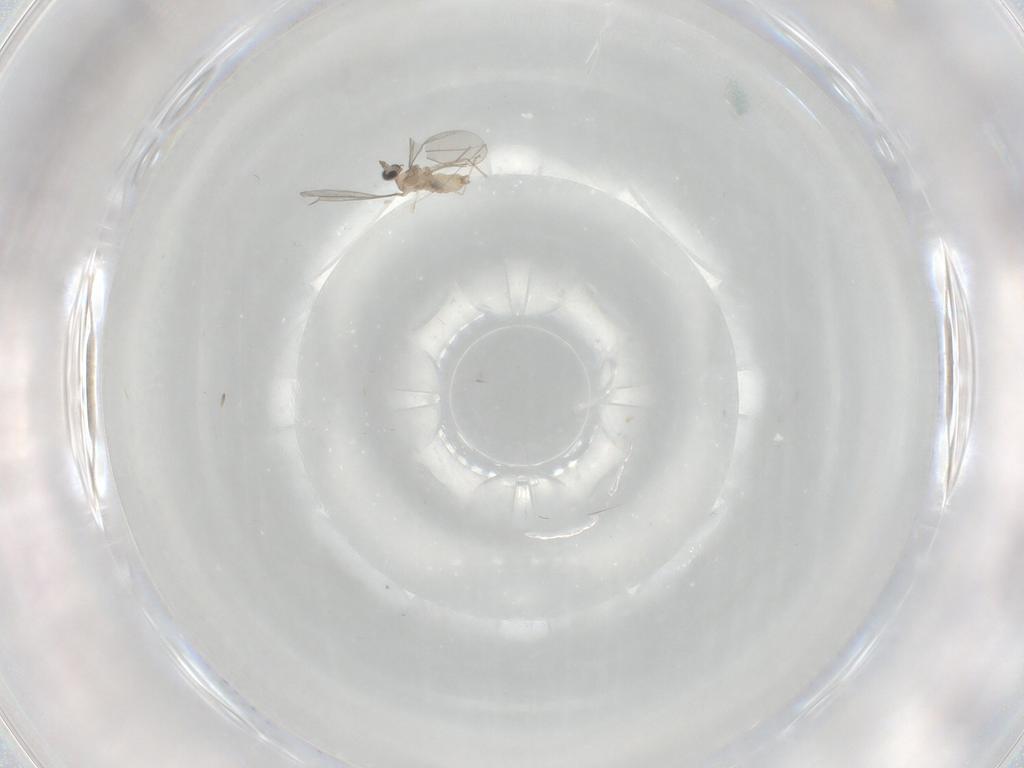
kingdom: Animalia
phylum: Arthropoda
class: Insecta
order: Diptera
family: Cecidomyiidae
